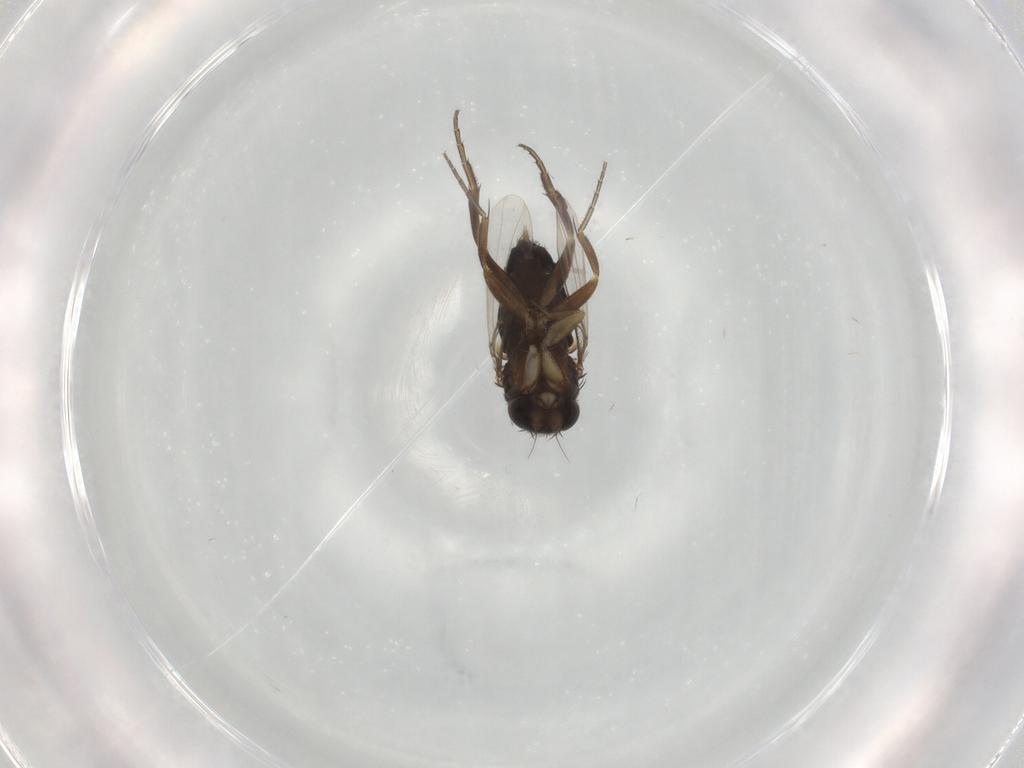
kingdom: Animalia
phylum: Arthropoda
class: Insecta
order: Diptera
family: Phoridae
